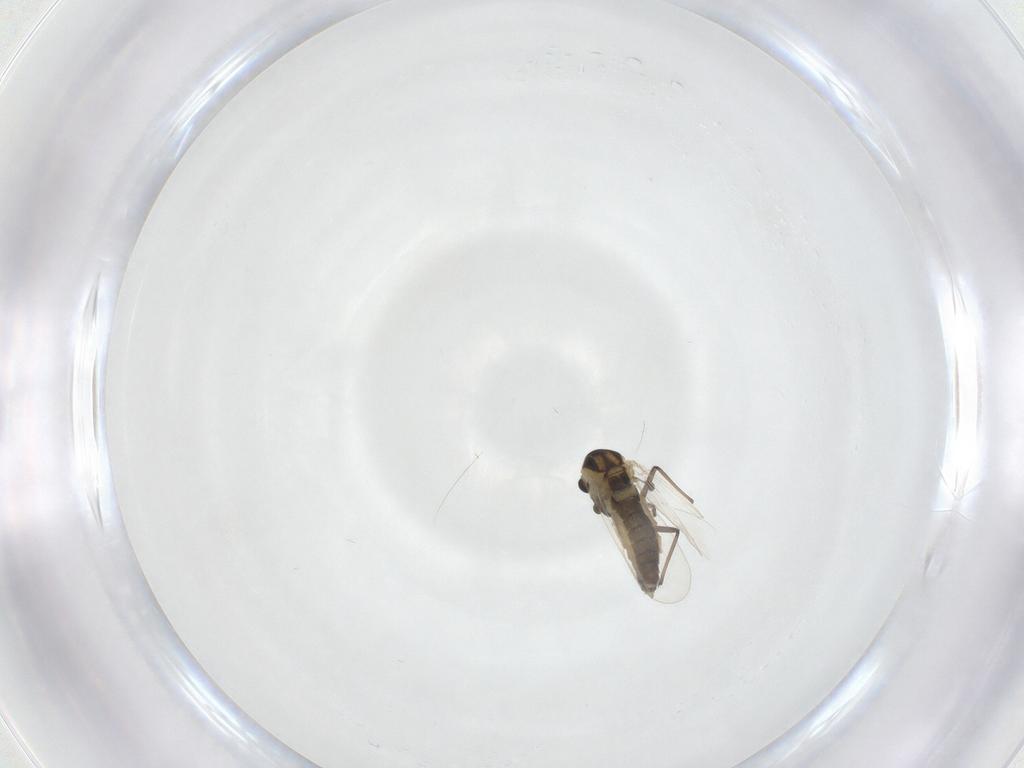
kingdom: Animalia
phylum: Arthropoda
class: Insecta
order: Diptera
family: Chironomidae
